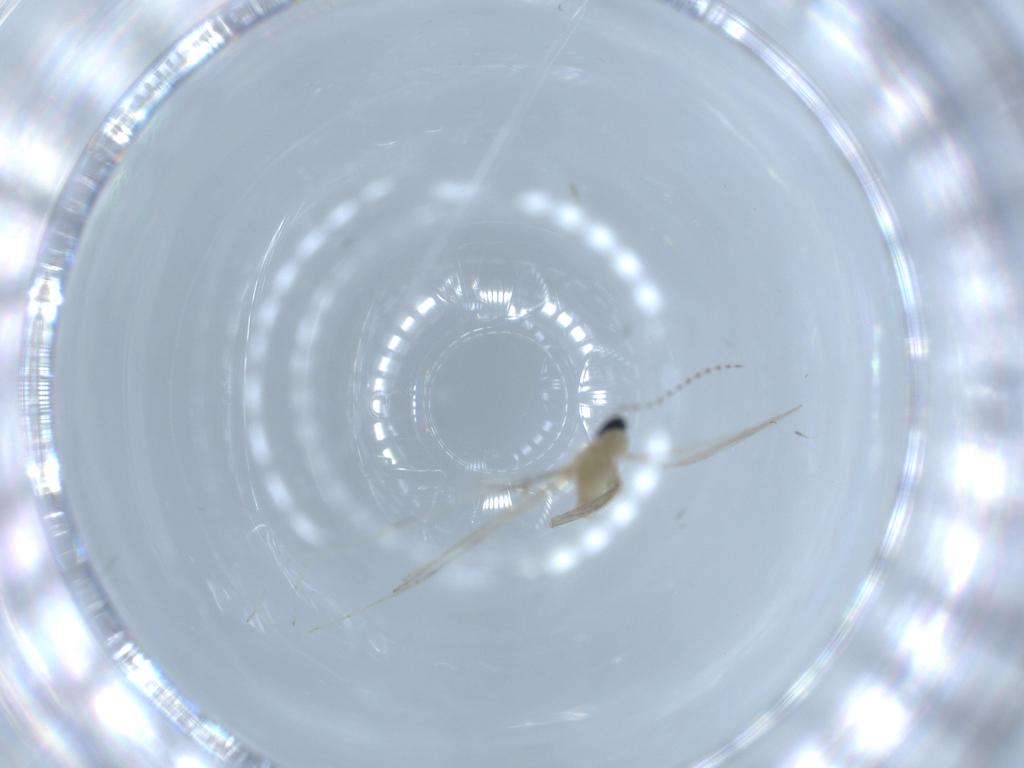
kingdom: Animalia
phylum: Arthropoda
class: Insecta
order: Diptera
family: Cecidomyiidae
